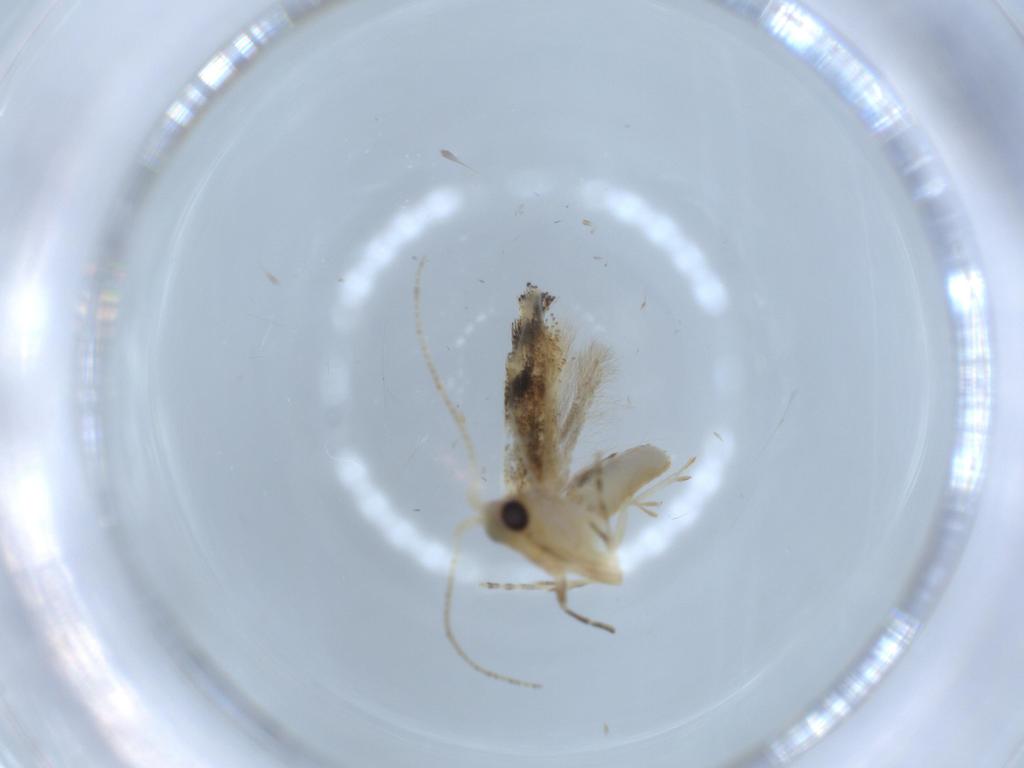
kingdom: Animalia
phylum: Arthropoda
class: Insecta
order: Lepidoptera
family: Bucculatricidae
